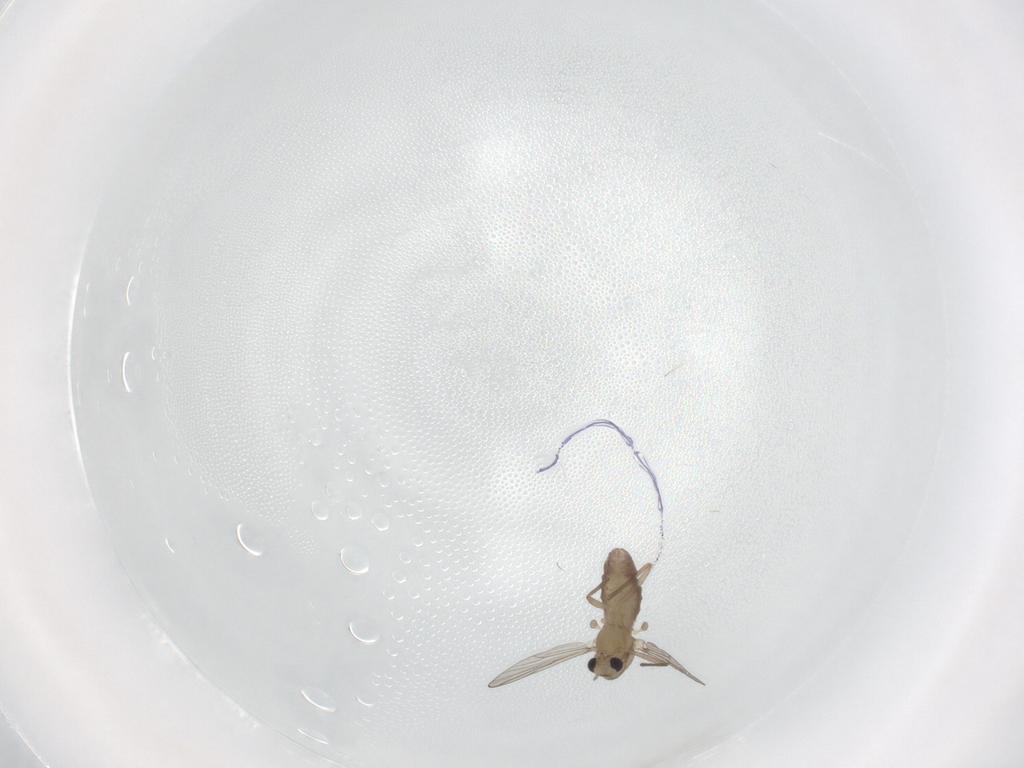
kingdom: Animalia
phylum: Arthropoda
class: Insecta
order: Diptera
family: Chironomidae
